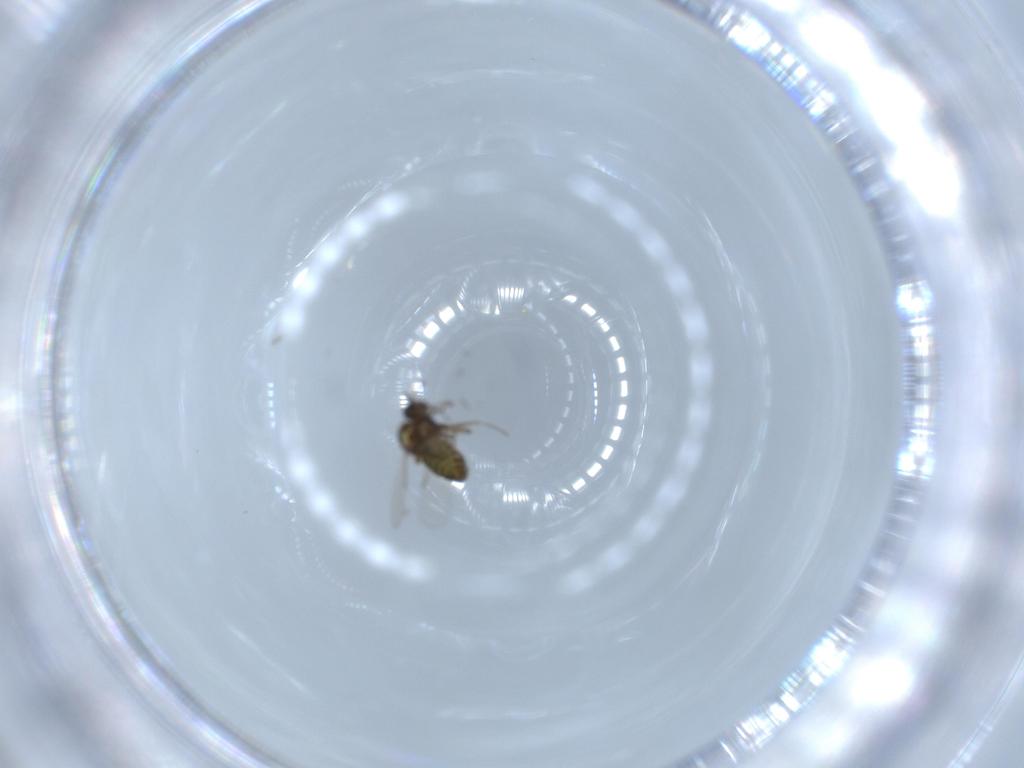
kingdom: Animalia
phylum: Arthropoda
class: Insecta
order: Diptera
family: Ceratopogonidae
